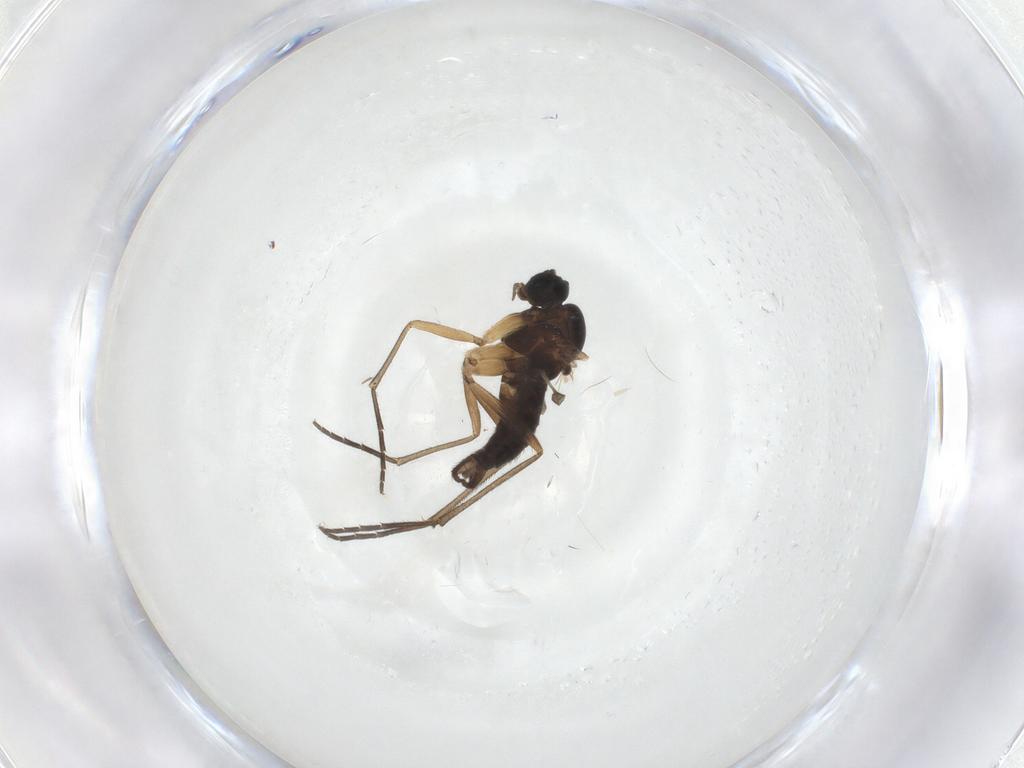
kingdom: Animalia
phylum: Arthropoda
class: Insecta
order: Diptera
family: Sciaridae
